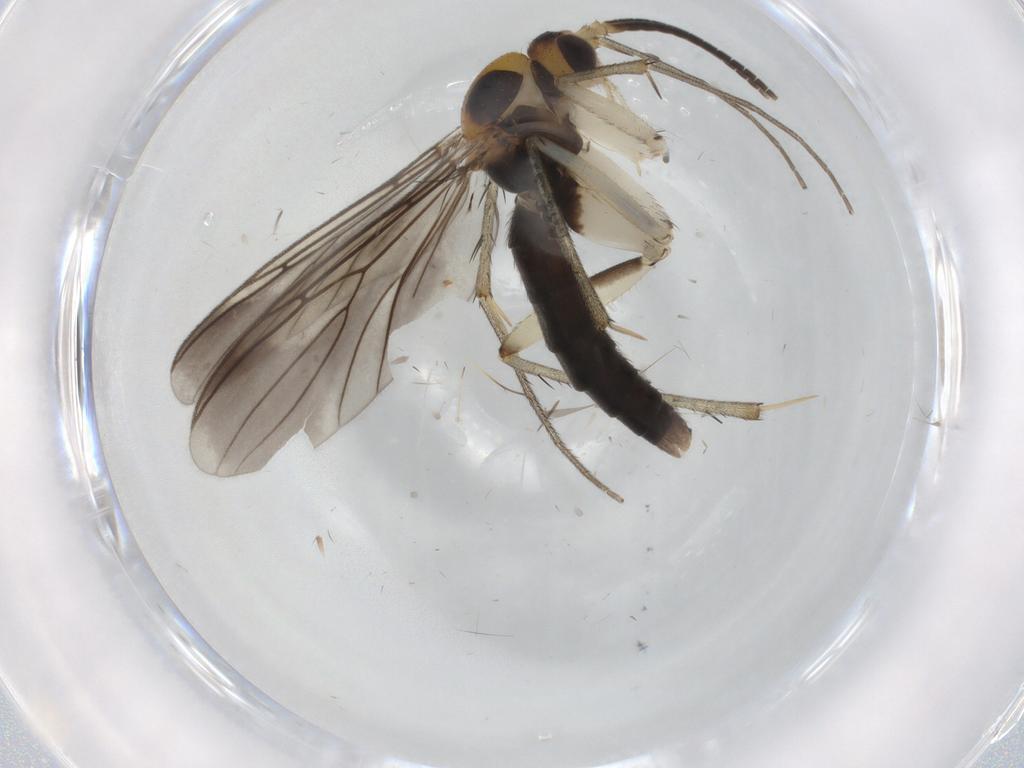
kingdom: Animalia
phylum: Arthropoda
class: Insecta
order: Diptera
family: Mycetophilidae
